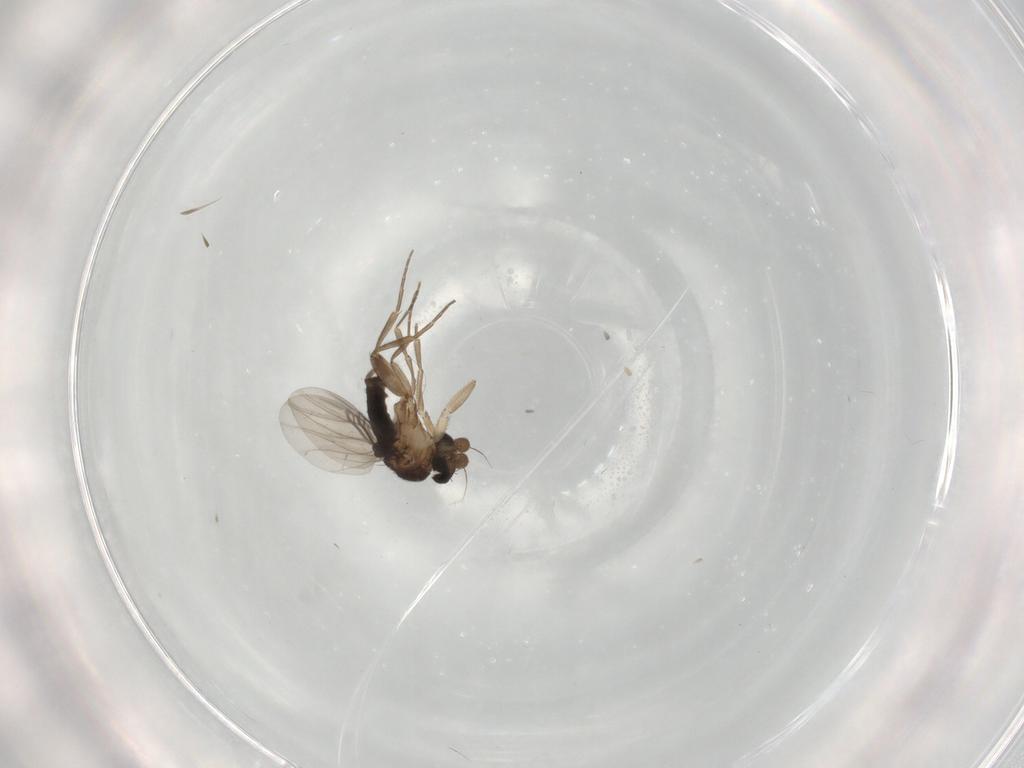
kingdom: Animalia
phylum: Arthropoda
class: Insecta
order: Diptera
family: Phoridae
